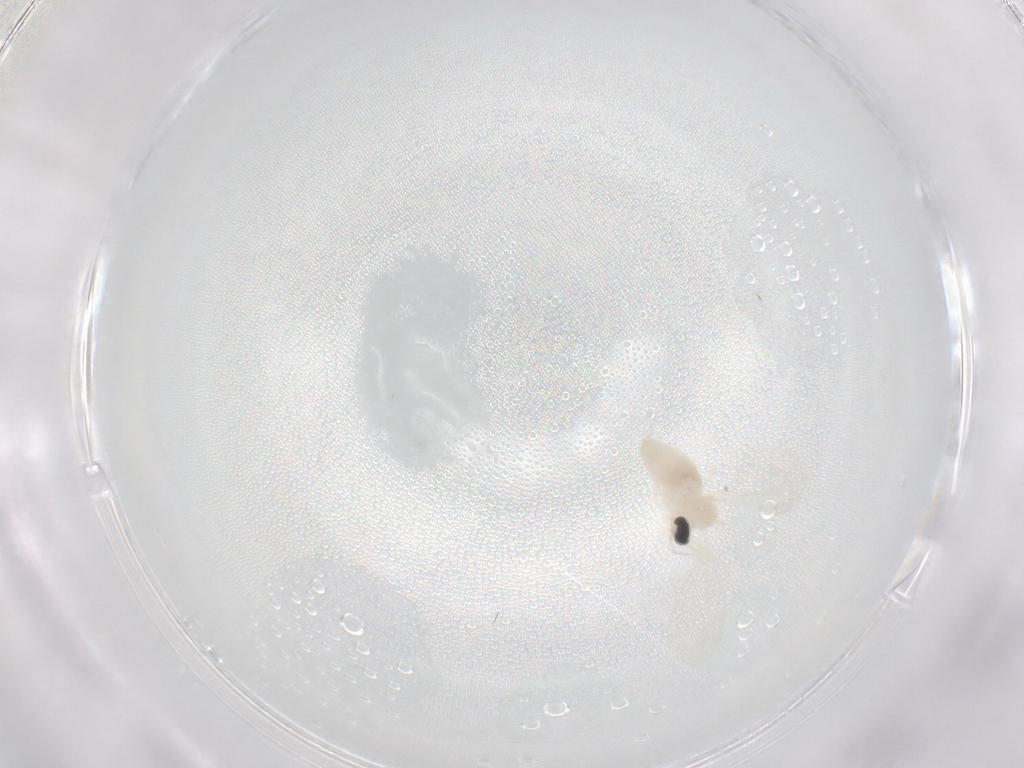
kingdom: Animalia
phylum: Arthropoda
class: Insecta
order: Diptera
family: Cecidomyiidae
